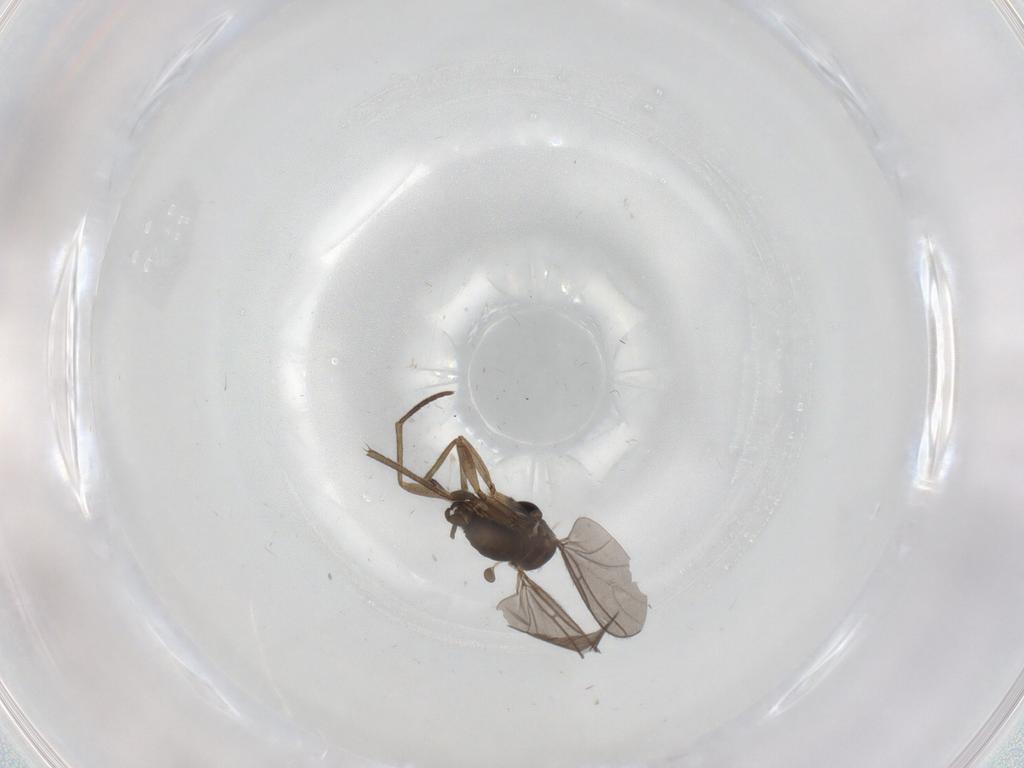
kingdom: Animalia
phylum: Arthropoda
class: Insecta
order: Diptera
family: Sciaridae
